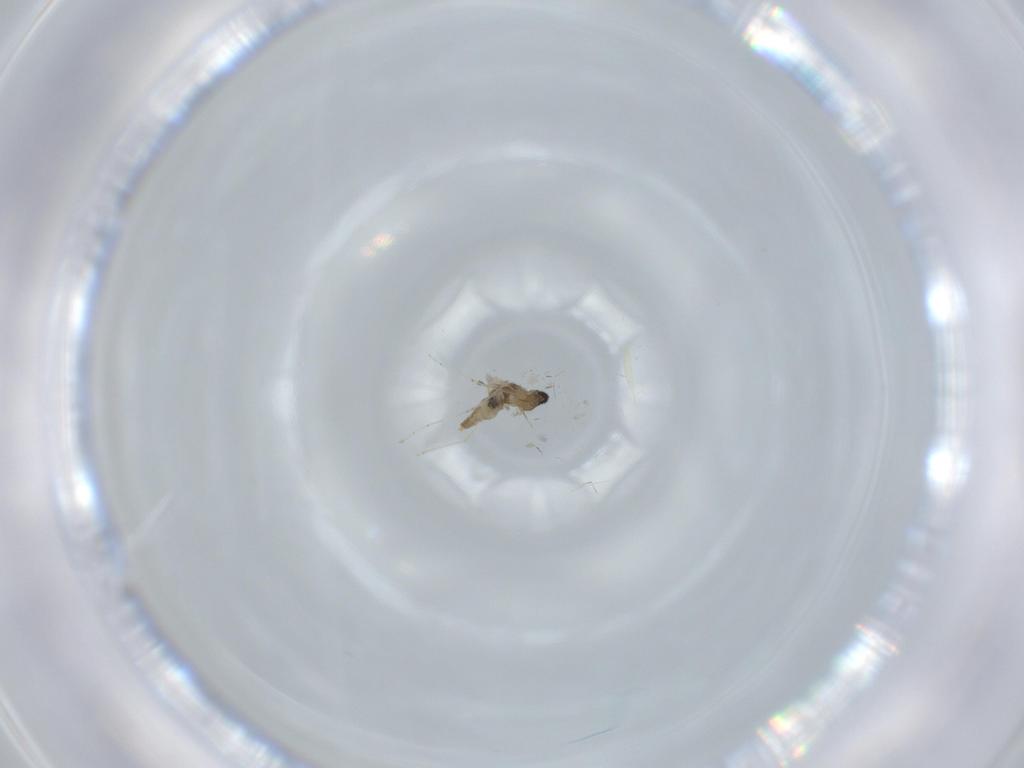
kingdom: Animalia
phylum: Arthropoda
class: Insecta
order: Diptera
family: Cecidomyiidae
